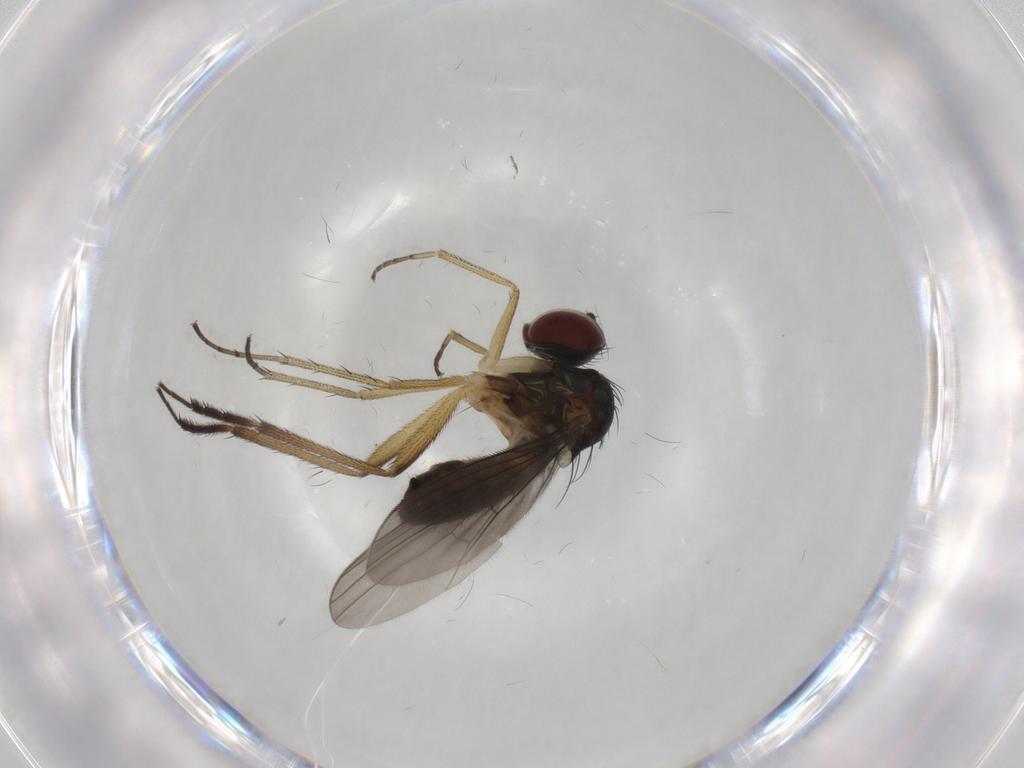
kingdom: Animalia
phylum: Arthropoda
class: Insecta
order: Diptera
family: Dolichopodidae
